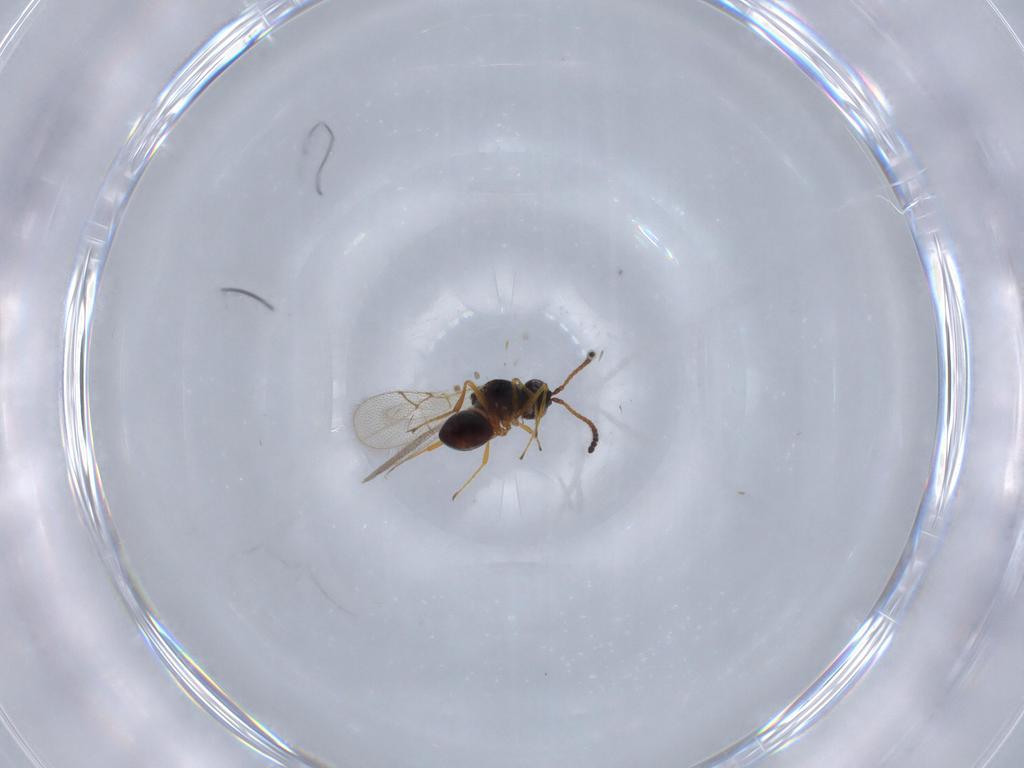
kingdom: Animalia
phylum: Arthropoda
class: Insecta
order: Hymenoptera
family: Figitidae
